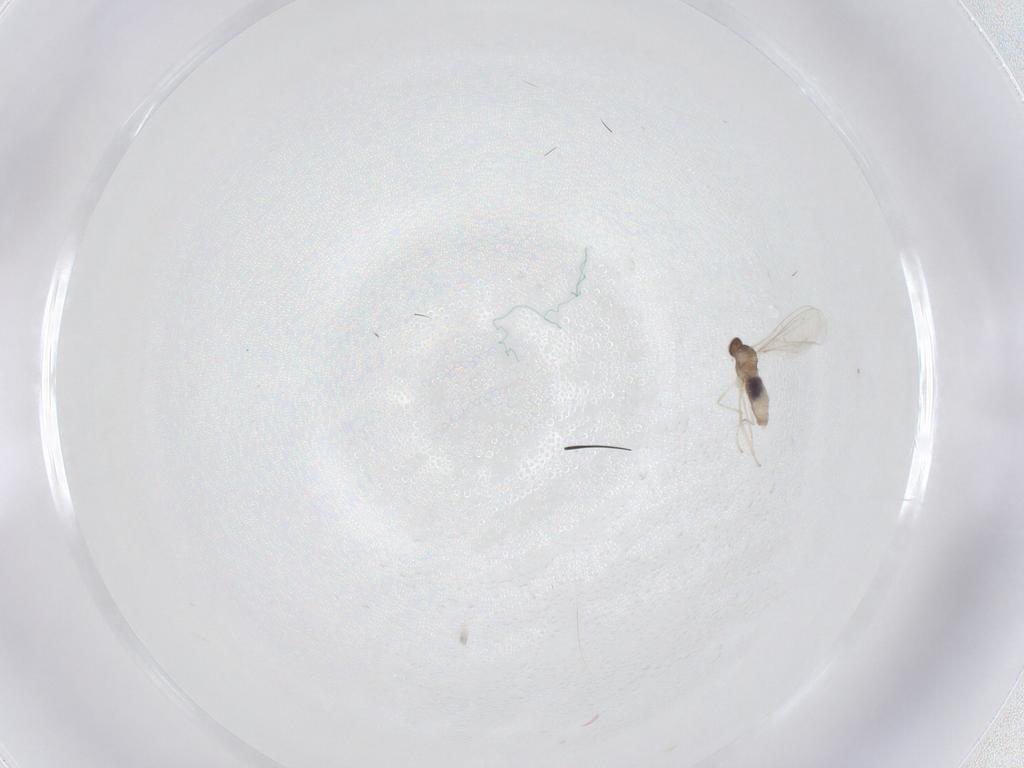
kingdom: Animalia
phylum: Arthropoda
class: Insecta
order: Diptera
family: Cecidomyiidae
